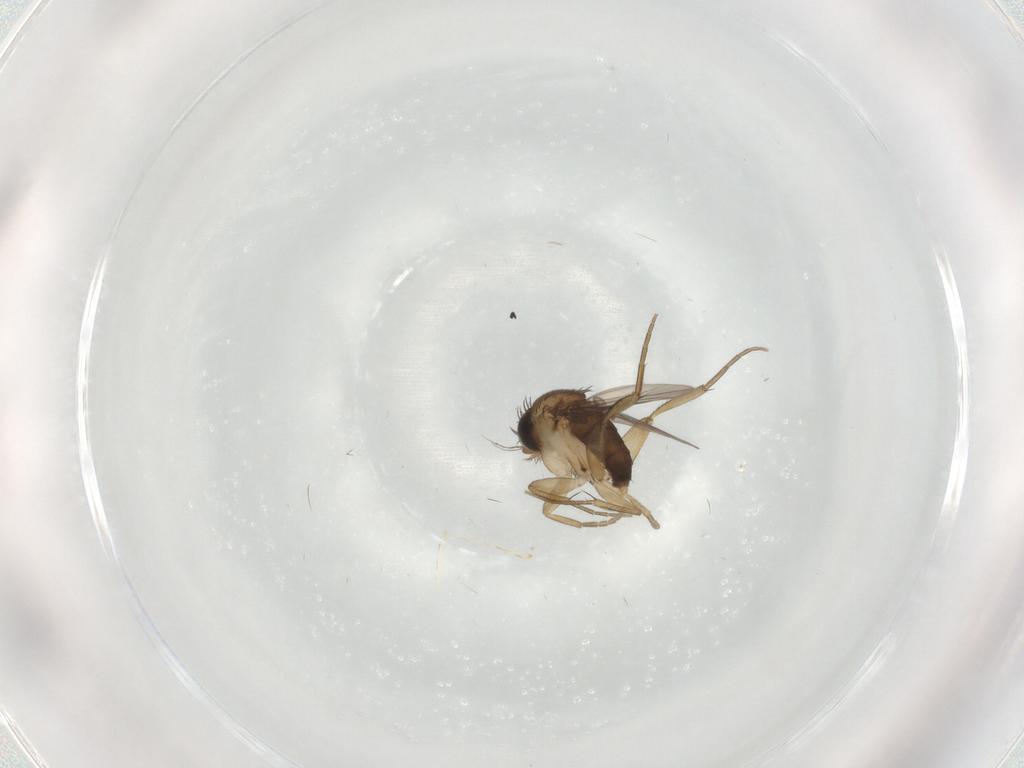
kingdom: Animalia
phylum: Arthropoda
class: Insecta
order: Diptera
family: Phoridae
